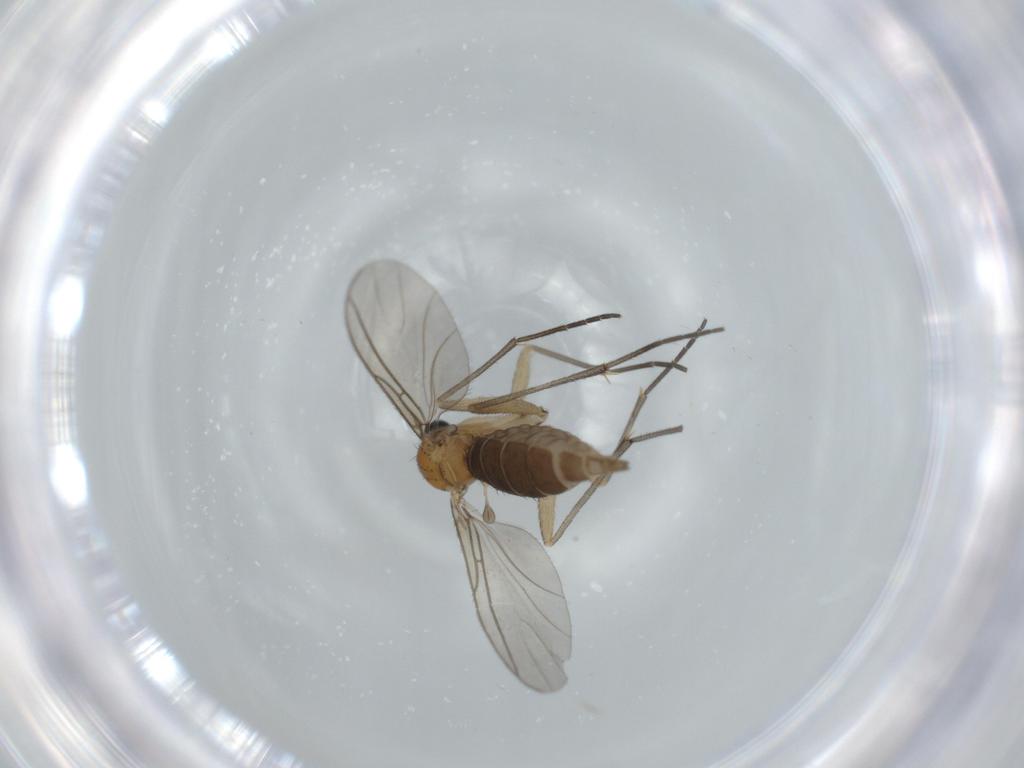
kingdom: Animalia
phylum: Arthropoda
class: Insecta
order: Diptera
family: Sciaridae
